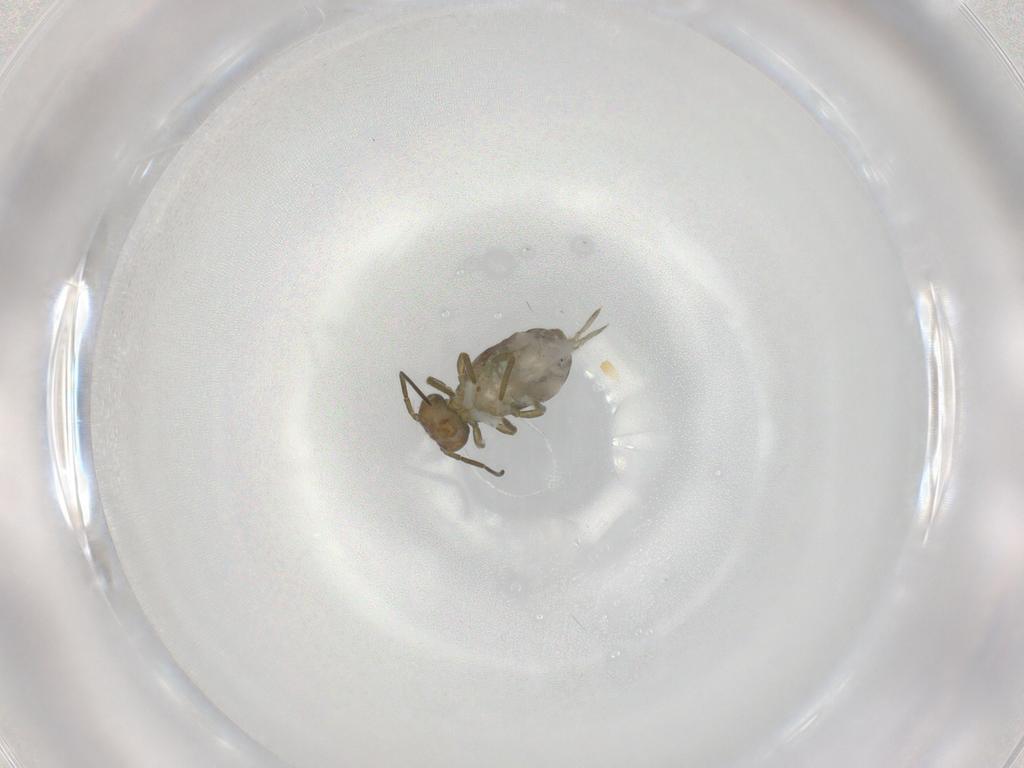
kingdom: Animalia
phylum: Arthropoda
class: Collembola
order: Symphypleona
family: Sminthuridae
